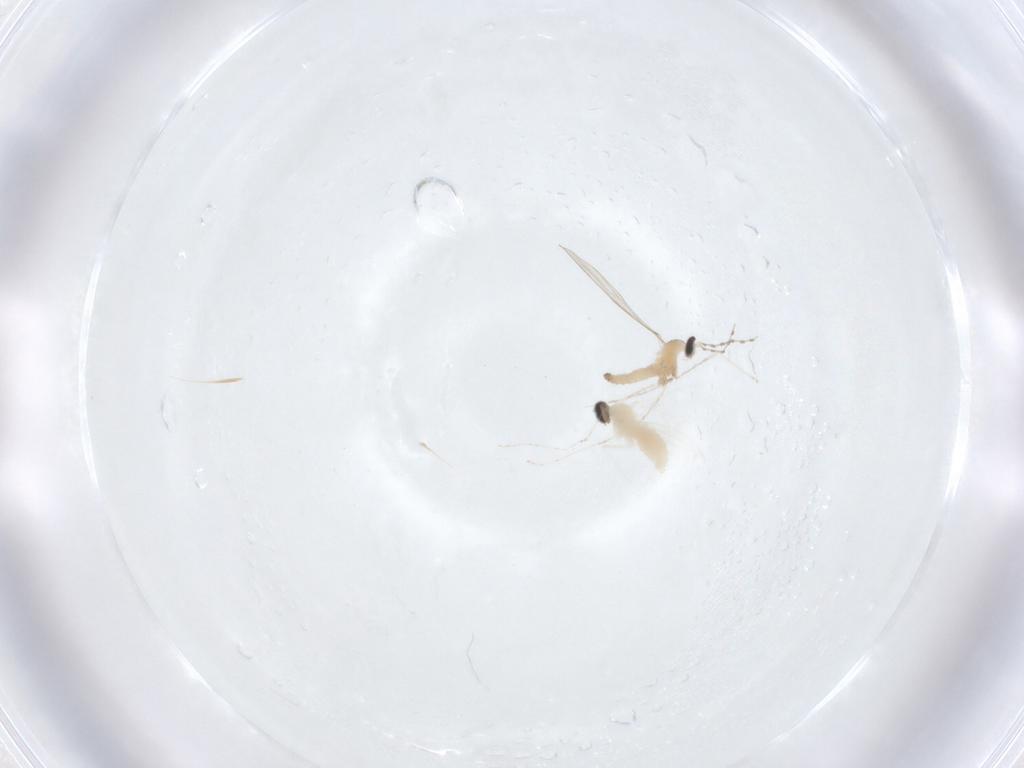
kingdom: Animalia
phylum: Arthropoda
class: Insecta
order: Diptera
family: Cecidomyiidae
